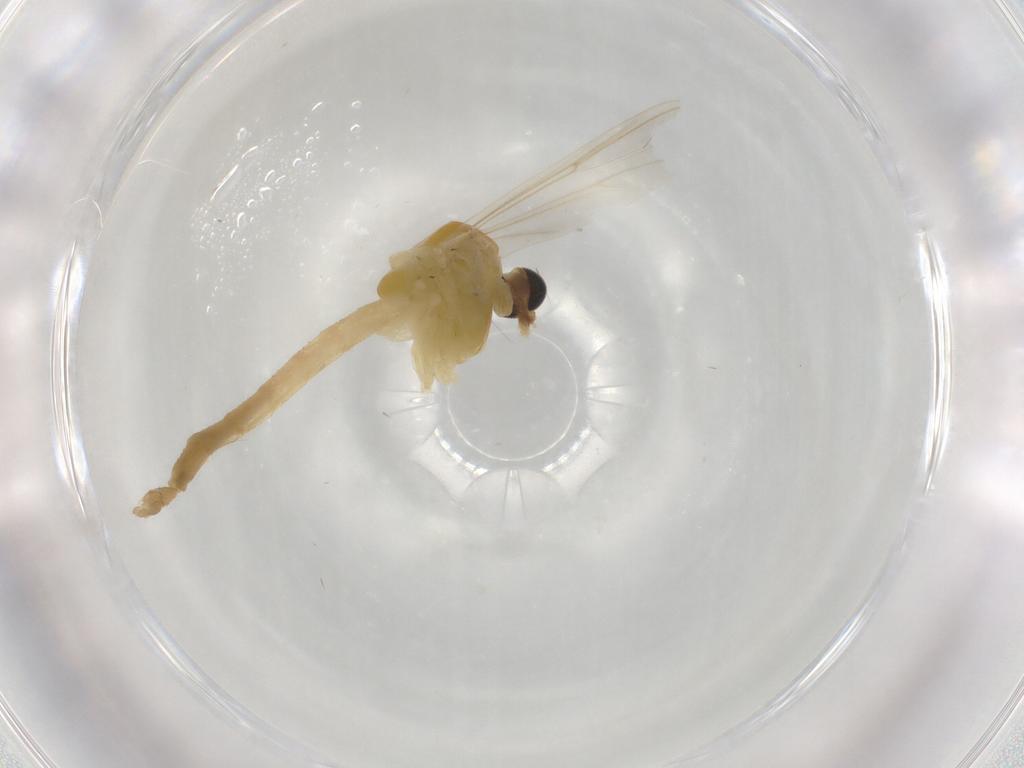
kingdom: Animalia
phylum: Arthropoda
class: Insecta
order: Diptera
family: Chironomidae
